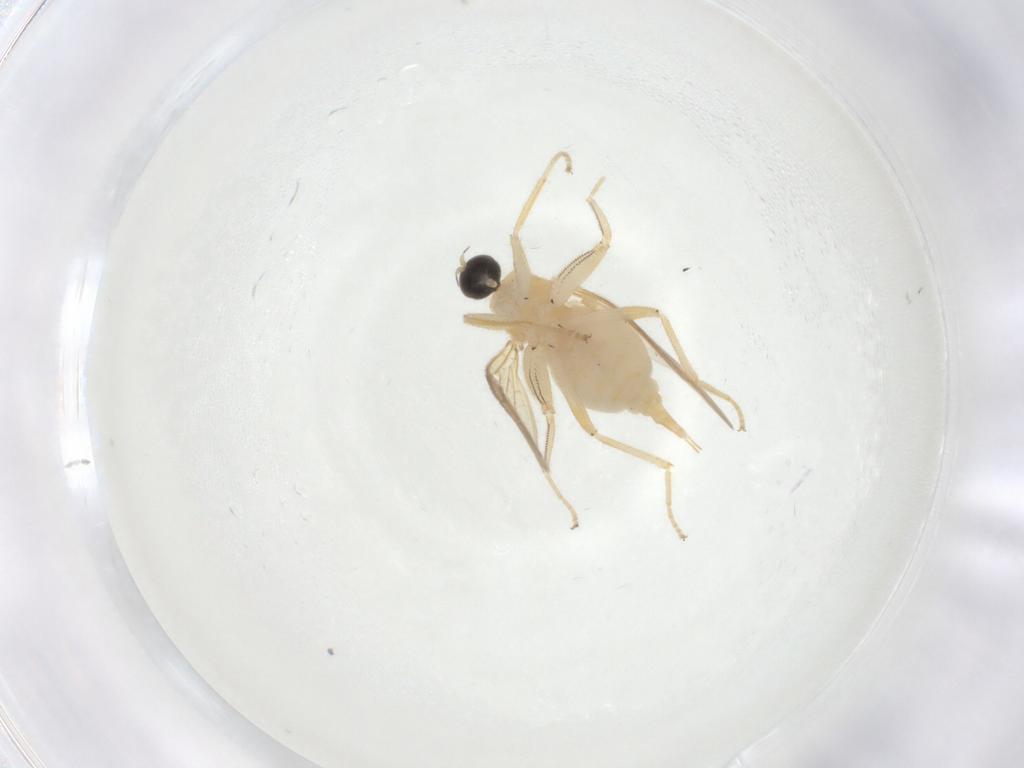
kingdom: Animalia
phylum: Arthropoda
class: Insecta
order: Diptera
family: Hybotidae
